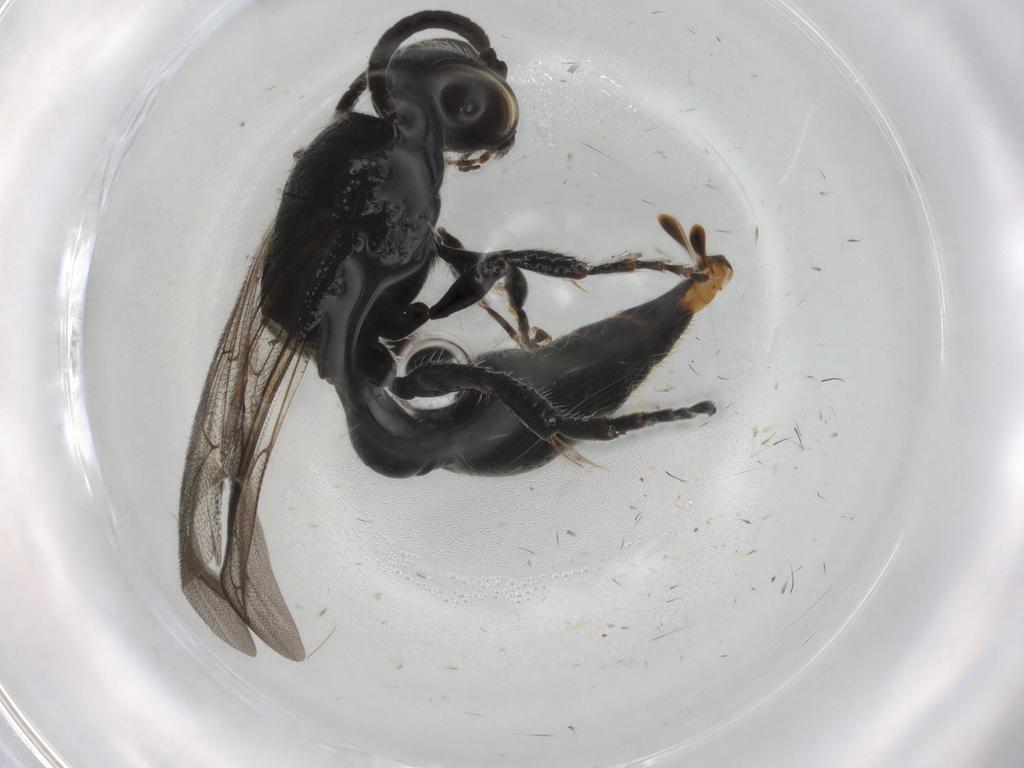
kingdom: Animalia
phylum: Arthropoda
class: Insecta
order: Hymenoptera
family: Tiphiidae
